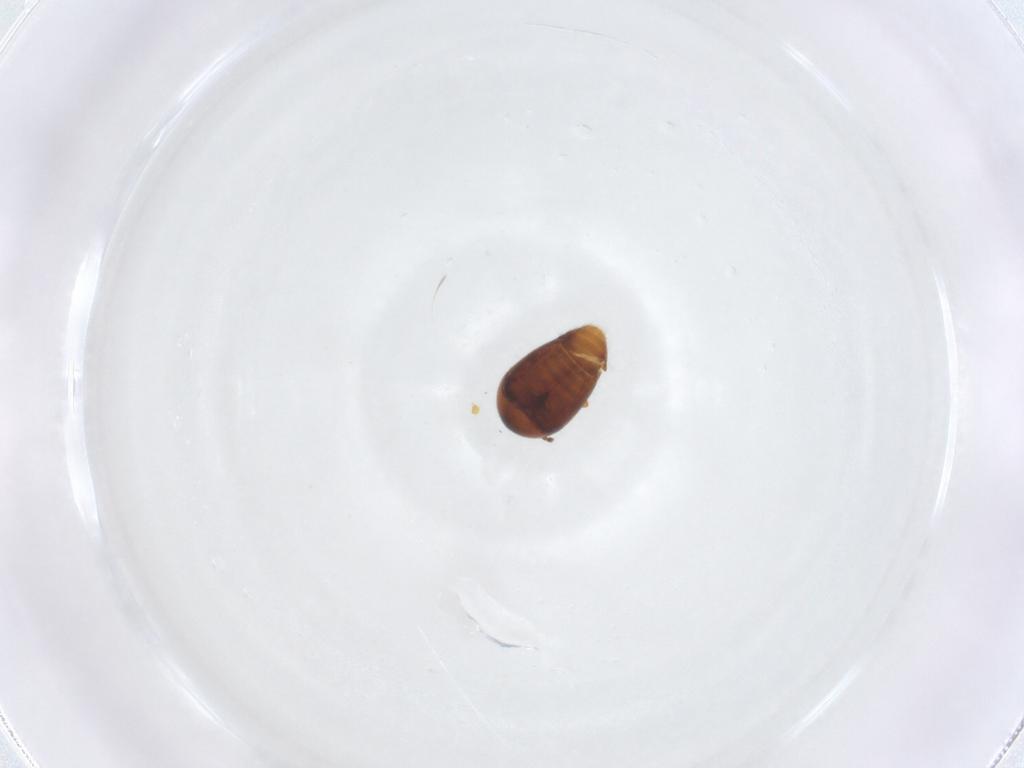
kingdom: Animalia
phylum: Arthropoda
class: Insecta
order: Coleoptera
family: Corylophidae
